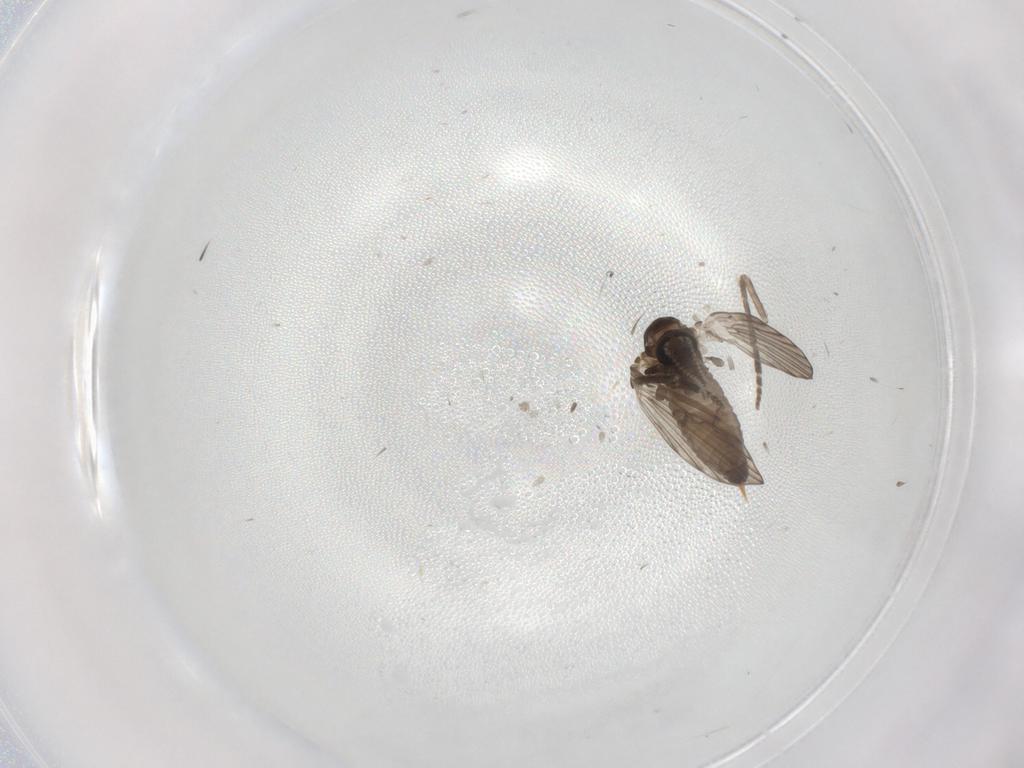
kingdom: Animalia
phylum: Arthropoda
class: Insecta
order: Diptera
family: Psychodidae
